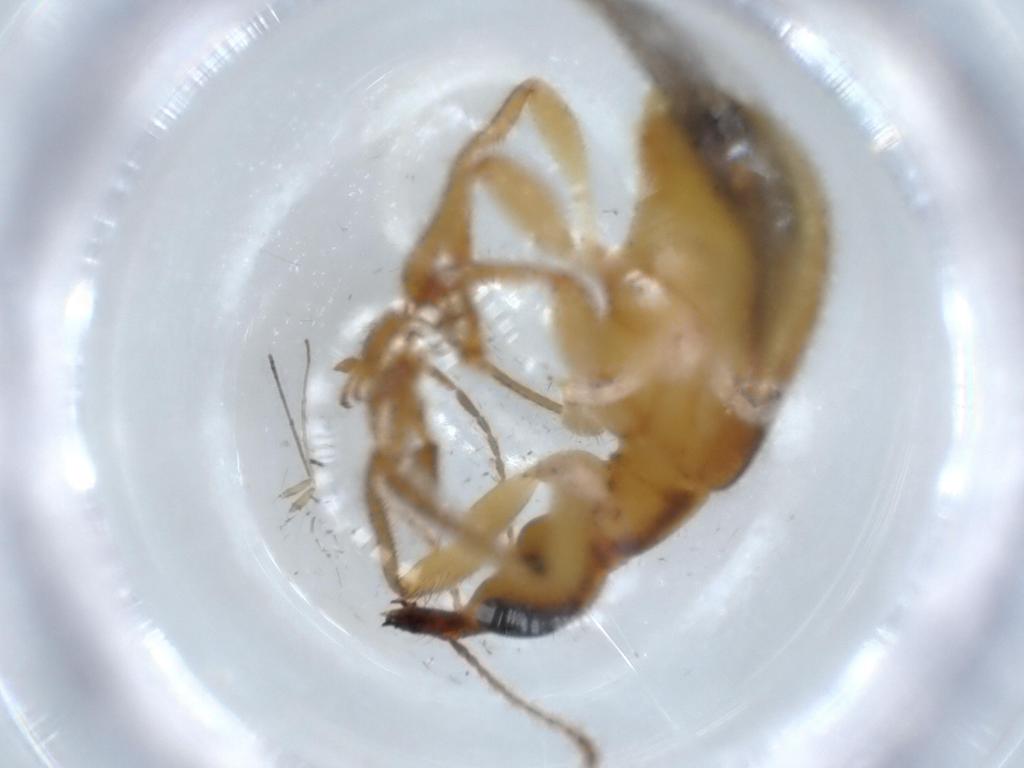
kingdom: Animalia
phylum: Arthropoda
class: Insecta
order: Coleoptera
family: Attelabidae
